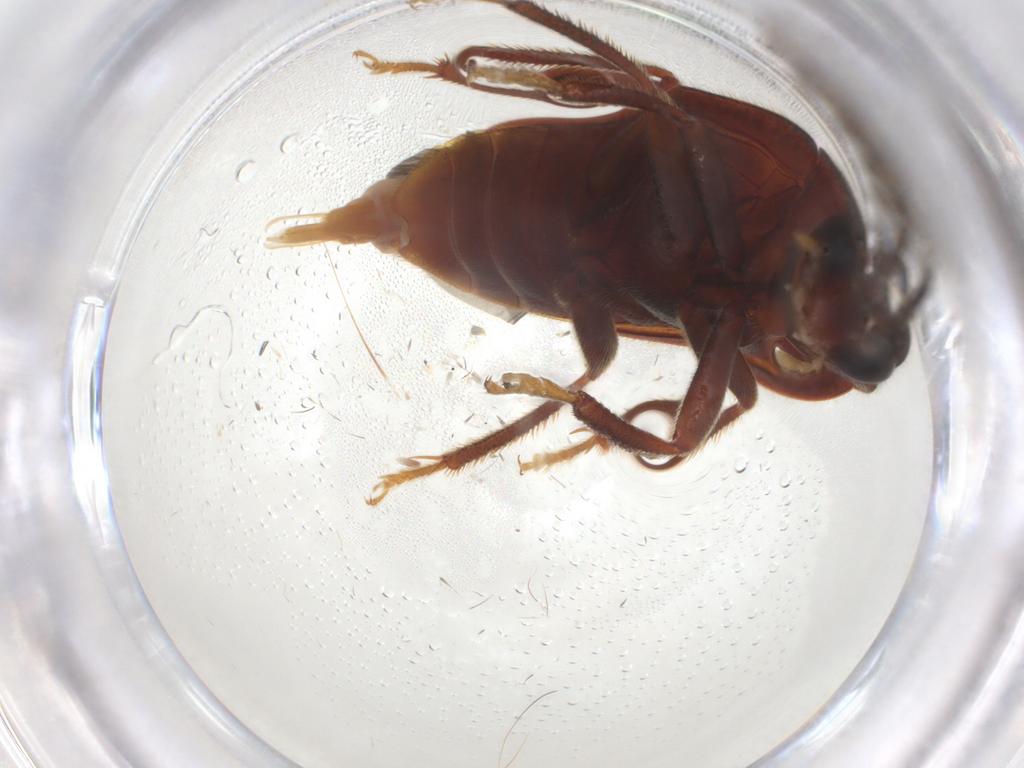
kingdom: Animalia
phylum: Arthropoda
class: Insecta
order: Coleoptera
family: Ptilodactylidae
